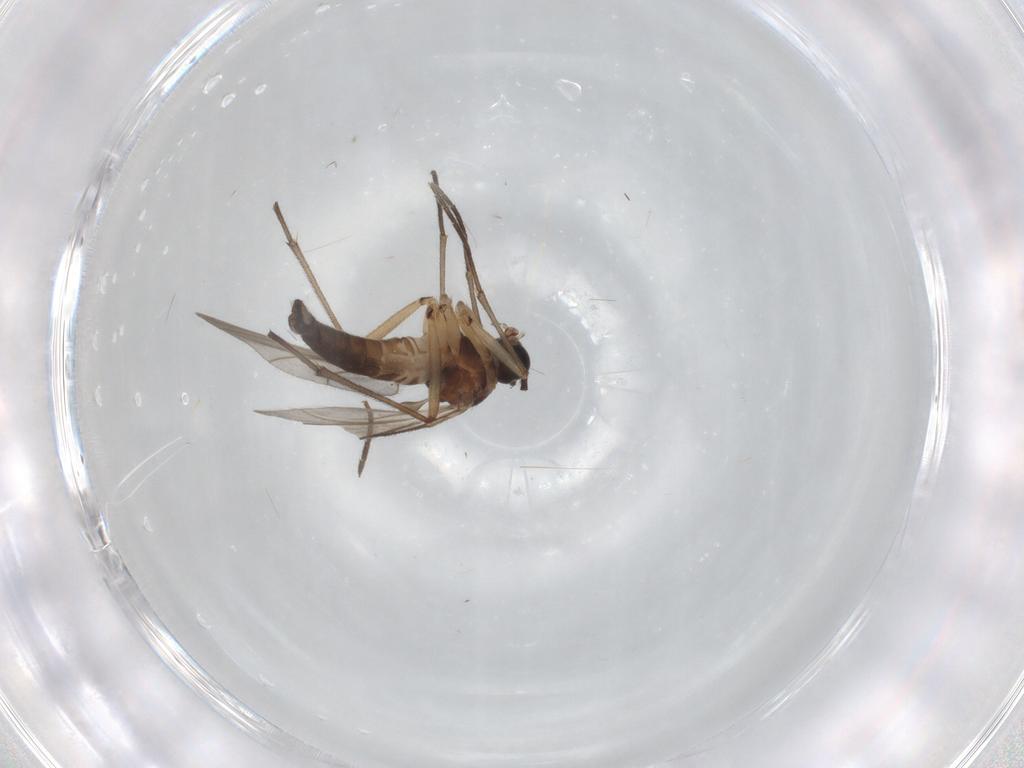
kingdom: Animalia
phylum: Arthropoda
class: Insecta
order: Diptera
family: Sciaridae
